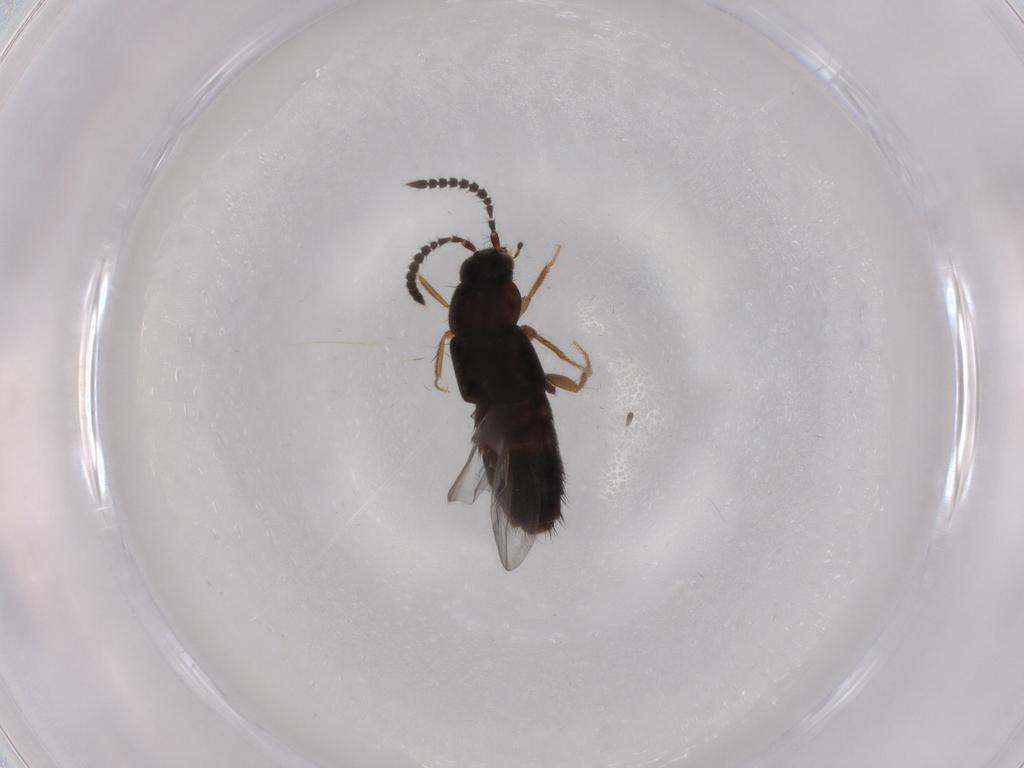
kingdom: Animalia
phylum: Arthropoda
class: Insecta
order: Coleoptera
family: Staphylinidae
